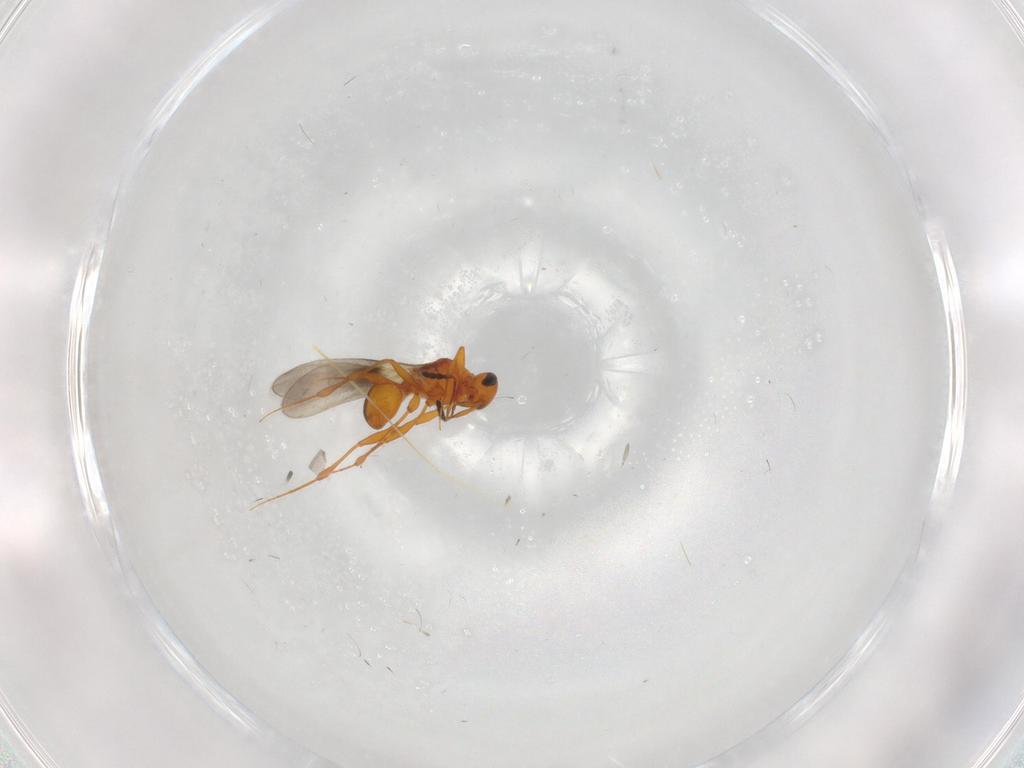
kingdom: Animalia
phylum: Arthropoda
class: Insecta
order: Hymenoptera
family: Platygastridae
